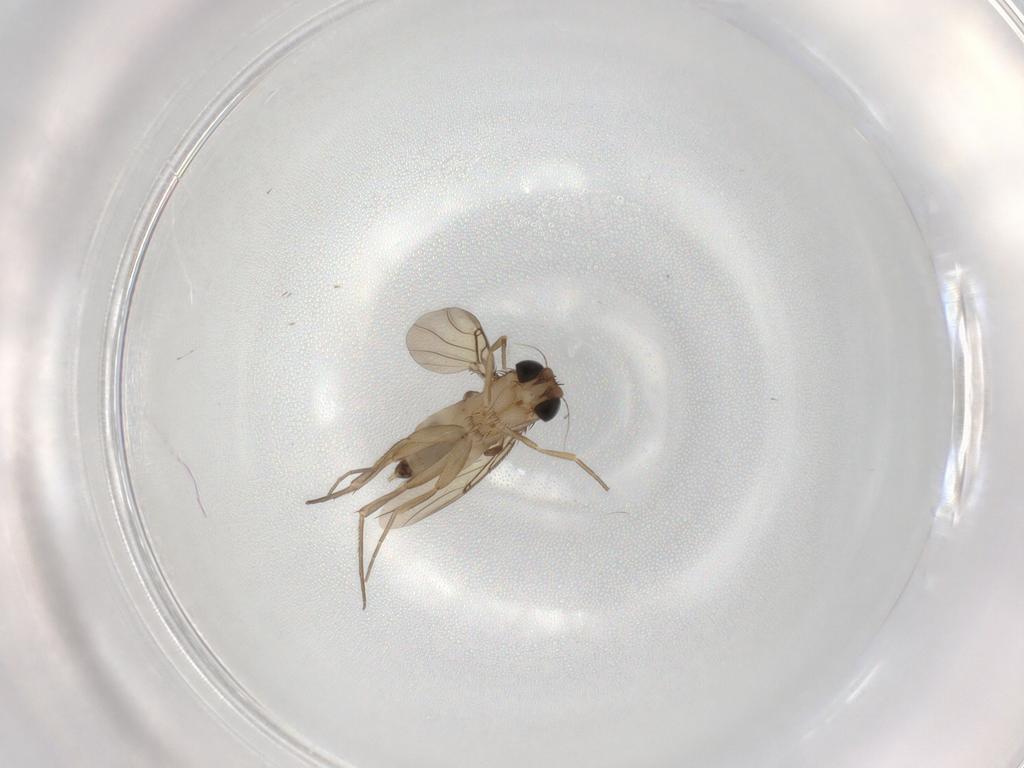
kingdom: Animalia
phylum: Arthropoda
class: Insecta
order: Diptera
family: Phoridae
